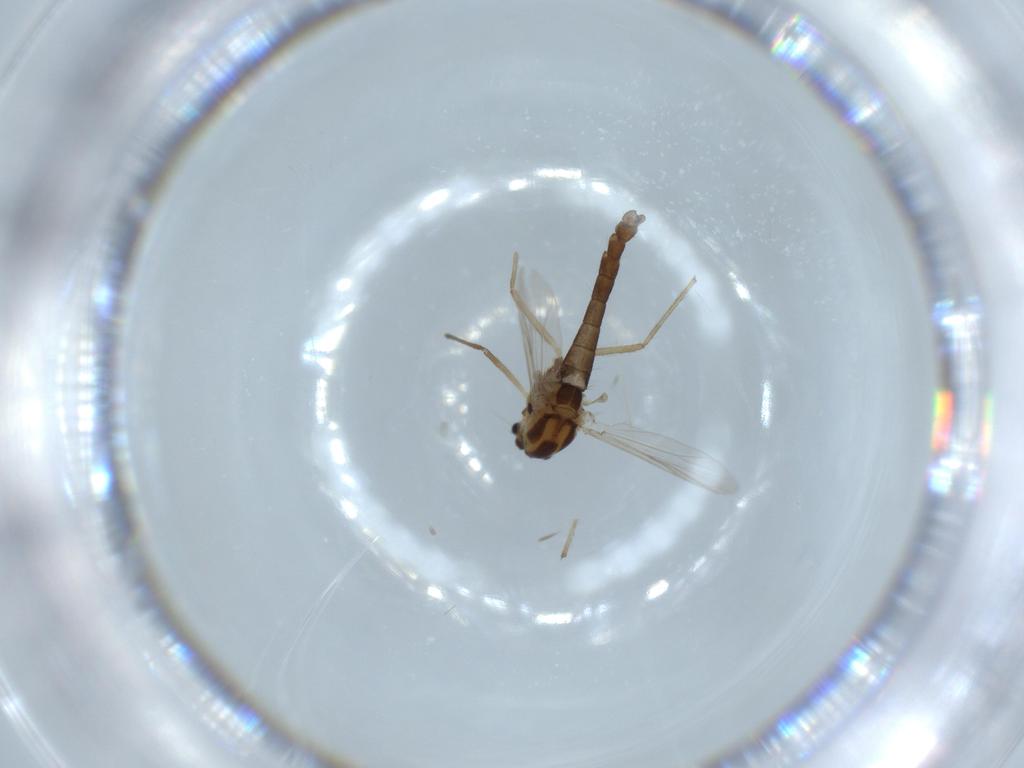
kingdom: Animalia
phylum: Arthropoda
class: Insecta
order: Diptera
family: Chironomidae
